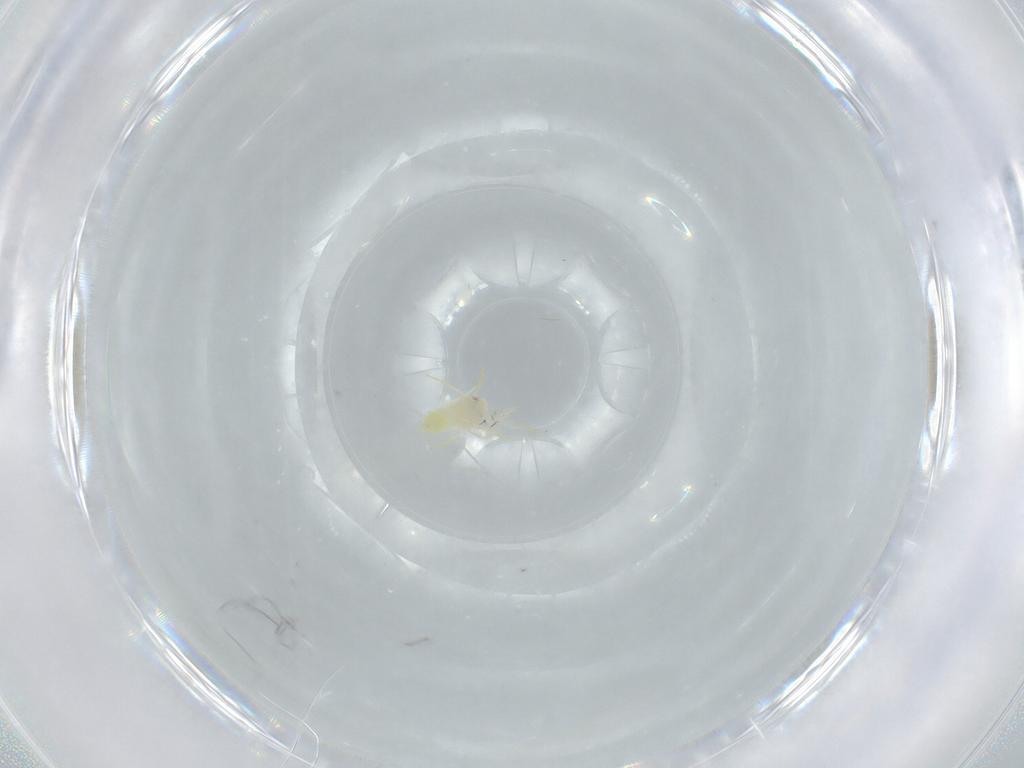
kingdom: Animalia
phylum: Arthropoda
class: Insecta
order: Hemiptera
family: Aleyrodidae
